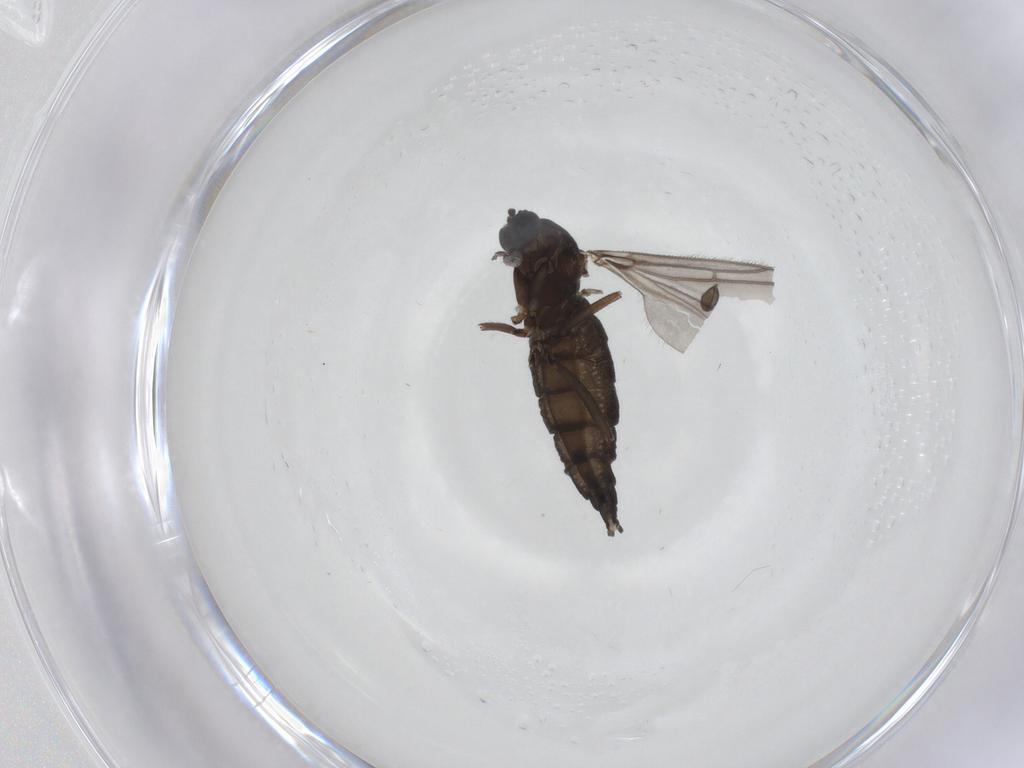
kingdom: Animalia
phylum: Arthropoda
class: Insecta
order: Diptera
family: Sciaridae
